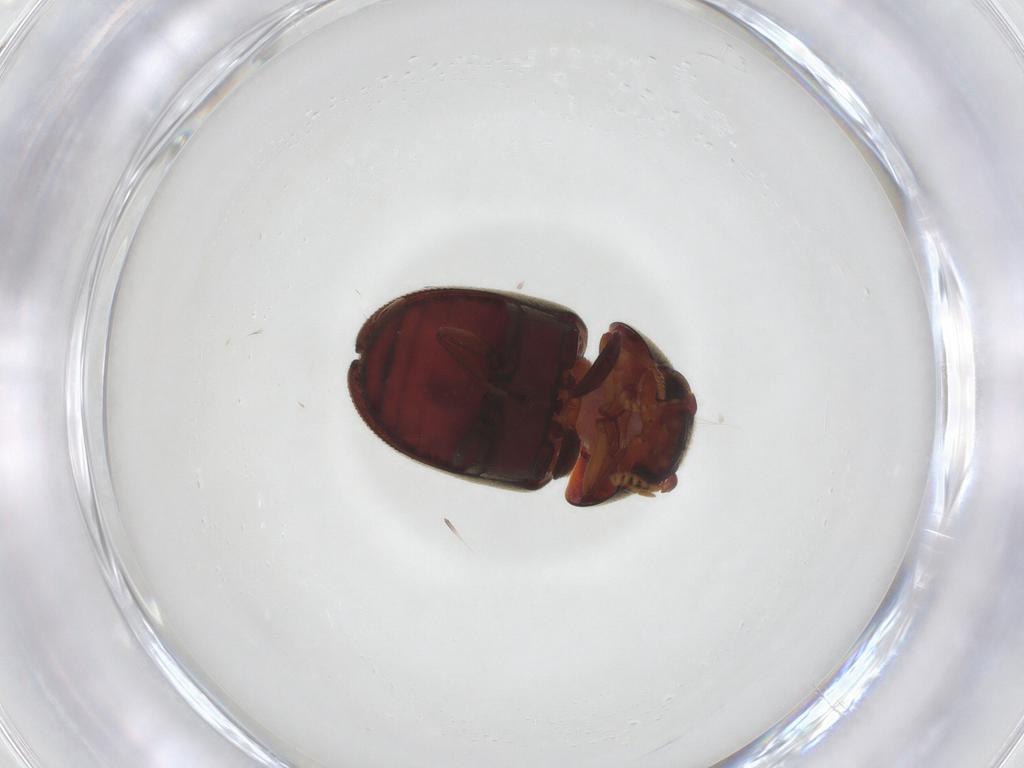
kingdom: Animalia
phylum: Arthropoda
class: Insecta
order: Coleoptera
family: Ptinidae
